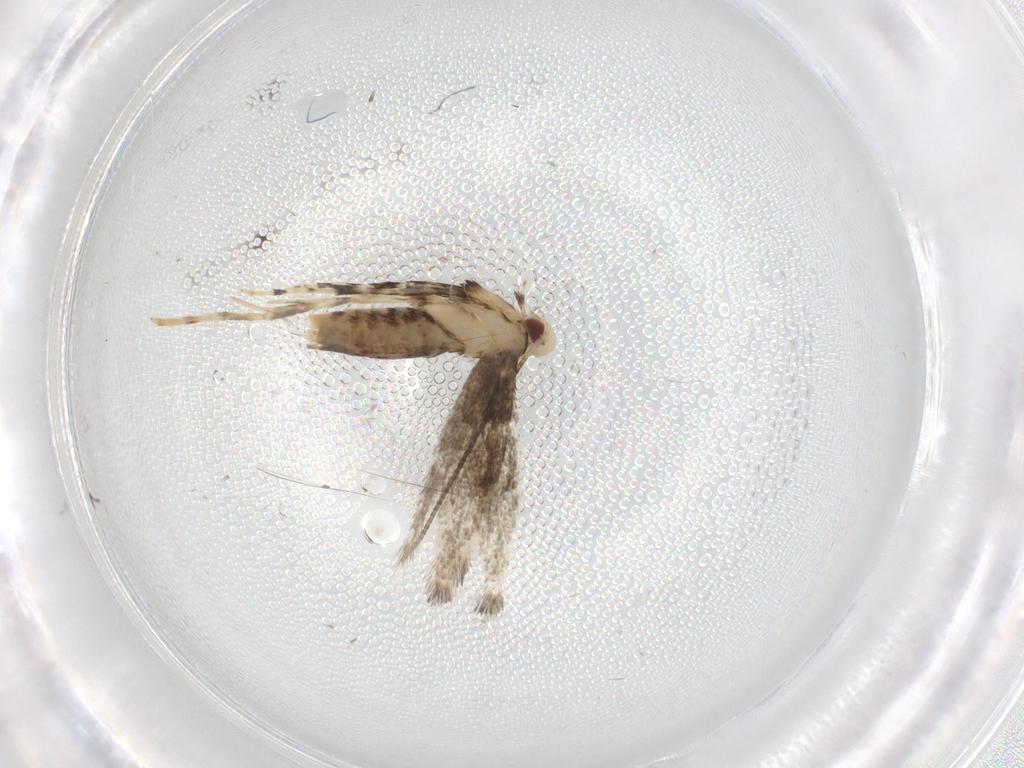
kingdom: Animalia
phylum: Arthropoda
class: Insecta
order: Lepidoptera
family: Gracillariidae
